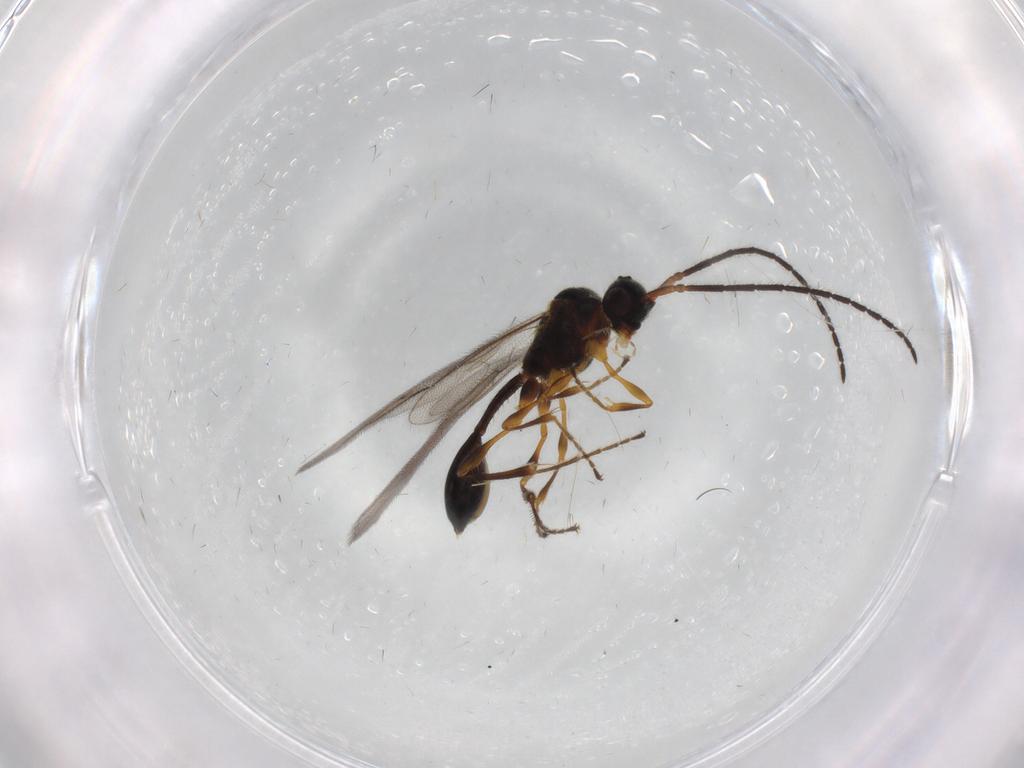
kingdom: Animalia
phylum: Arthropoda
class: Insecta
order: Hymenoptera
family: Diapriidae
